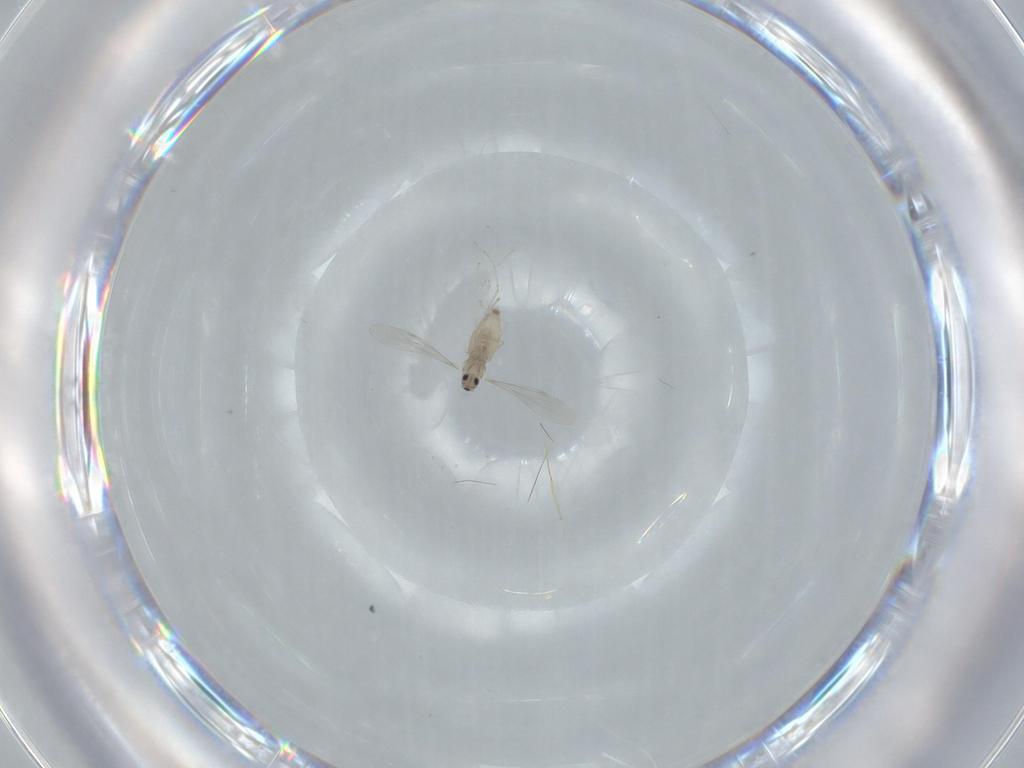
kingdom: Animalia
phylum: Arthropoda
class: Insecta
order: Diptera
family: Cecidomyiidae
